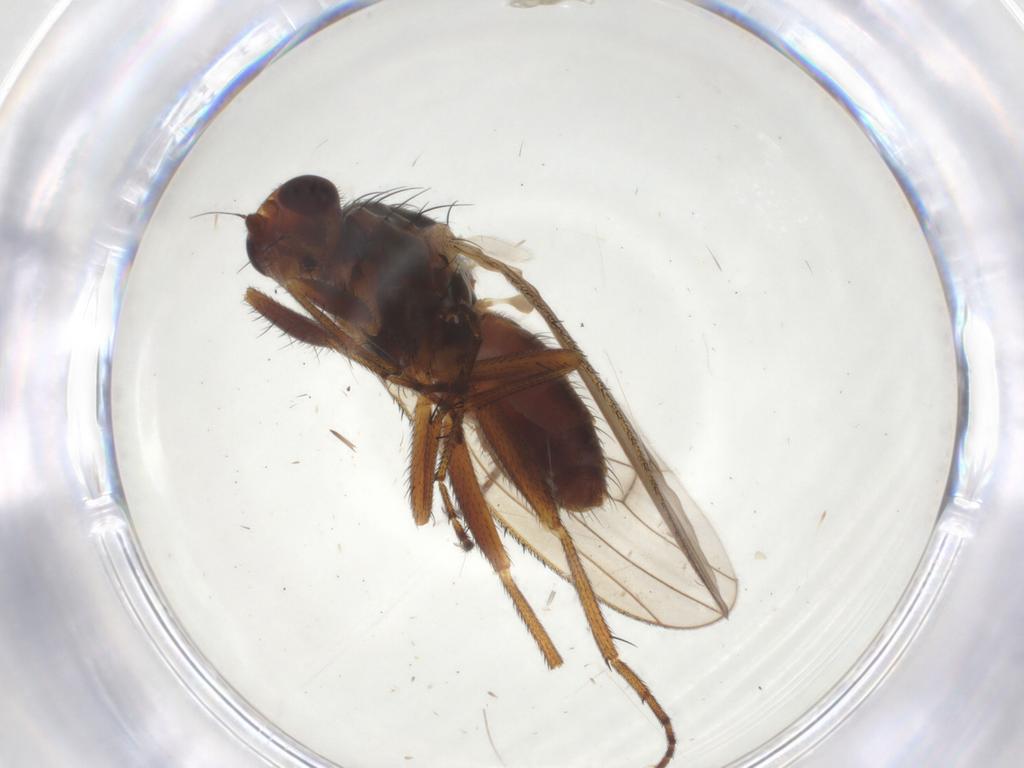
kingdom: Animalia
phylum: Arthropoda
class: Insecta
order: Diptera
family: Heleomyzidae
